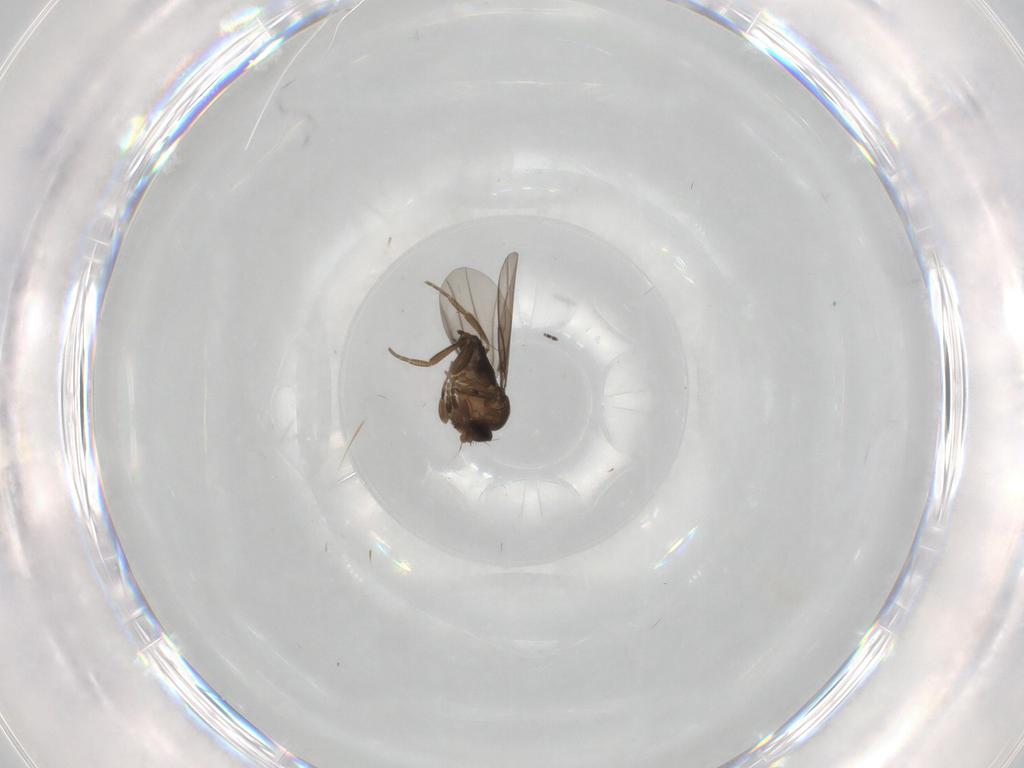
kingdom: Animalia
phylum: Arthropoda
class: Insecta
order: Diptera
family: Phoridae
